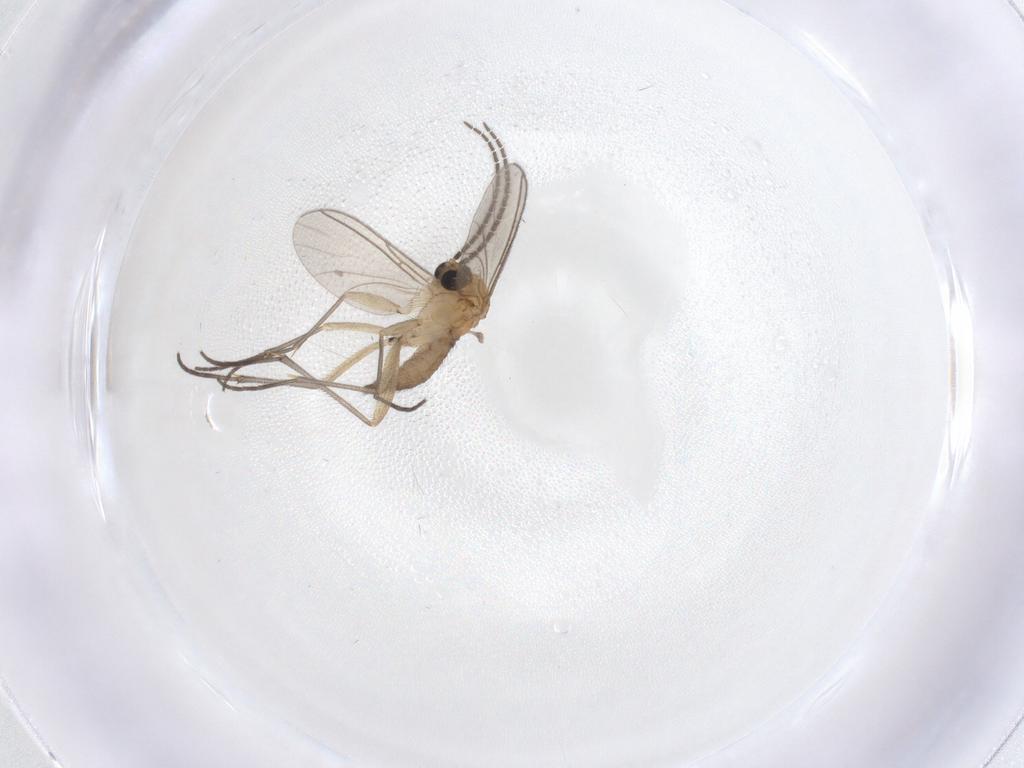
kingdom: Animalia
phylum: Arthropoda
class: Insecta
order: Diptera
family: Sciaridae
